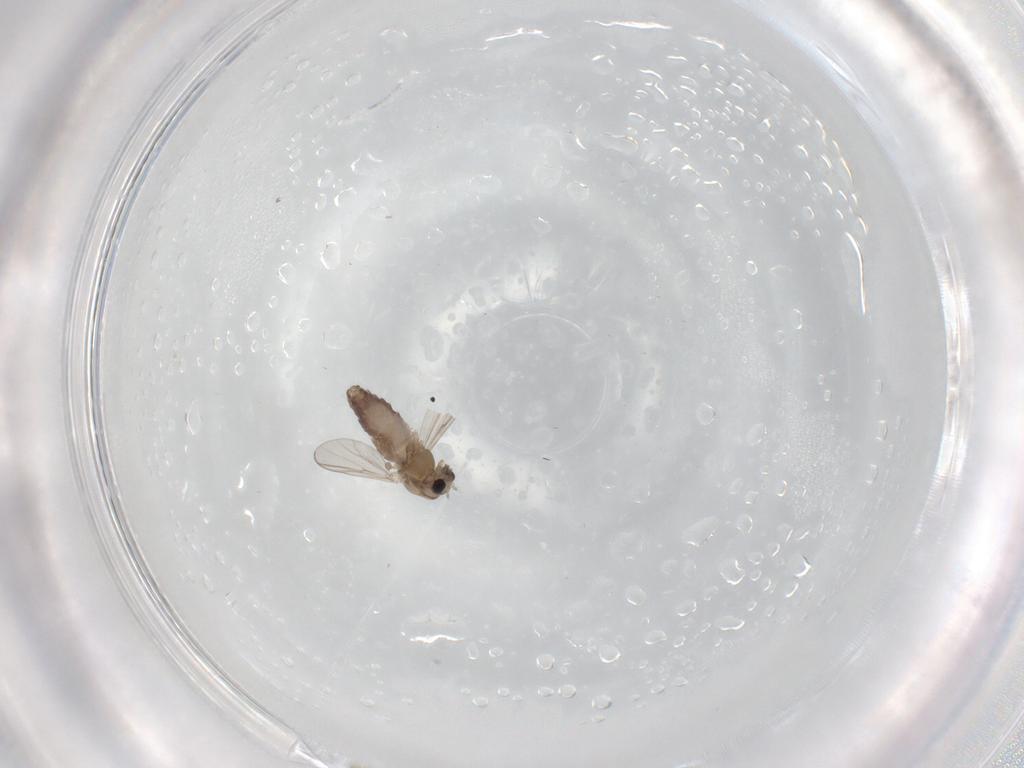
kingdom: Animalia
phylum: Arthropoda
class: Insecta
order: Diptera
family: Chironomidae
